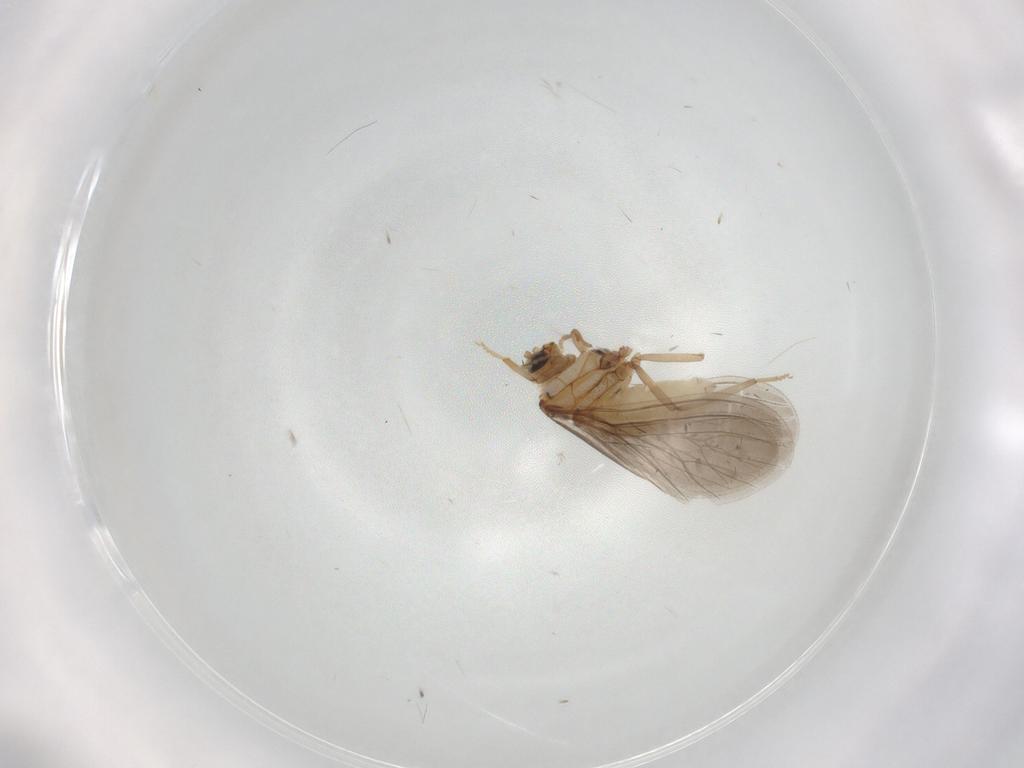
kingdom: Animalia
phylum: Arthropoda
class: Insecta
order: Neuroptera
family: Coniopterygidae
